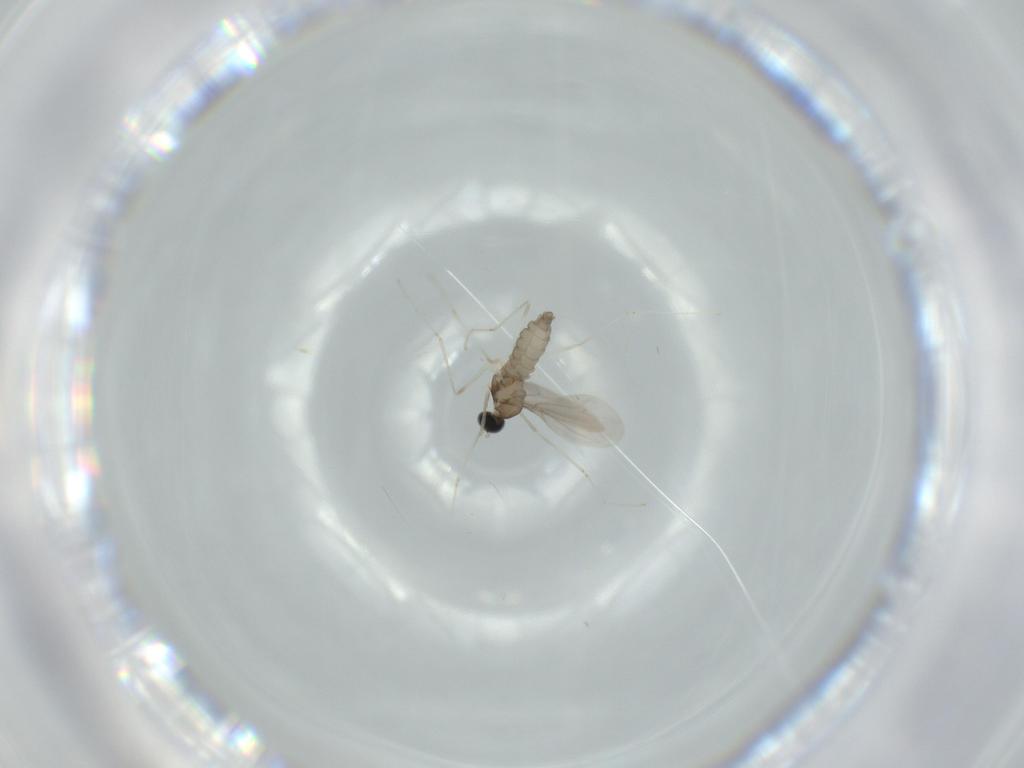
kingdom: Animalia
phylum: Arthropoda
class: Insecta
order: Diptera
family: Cecidomyiidae
